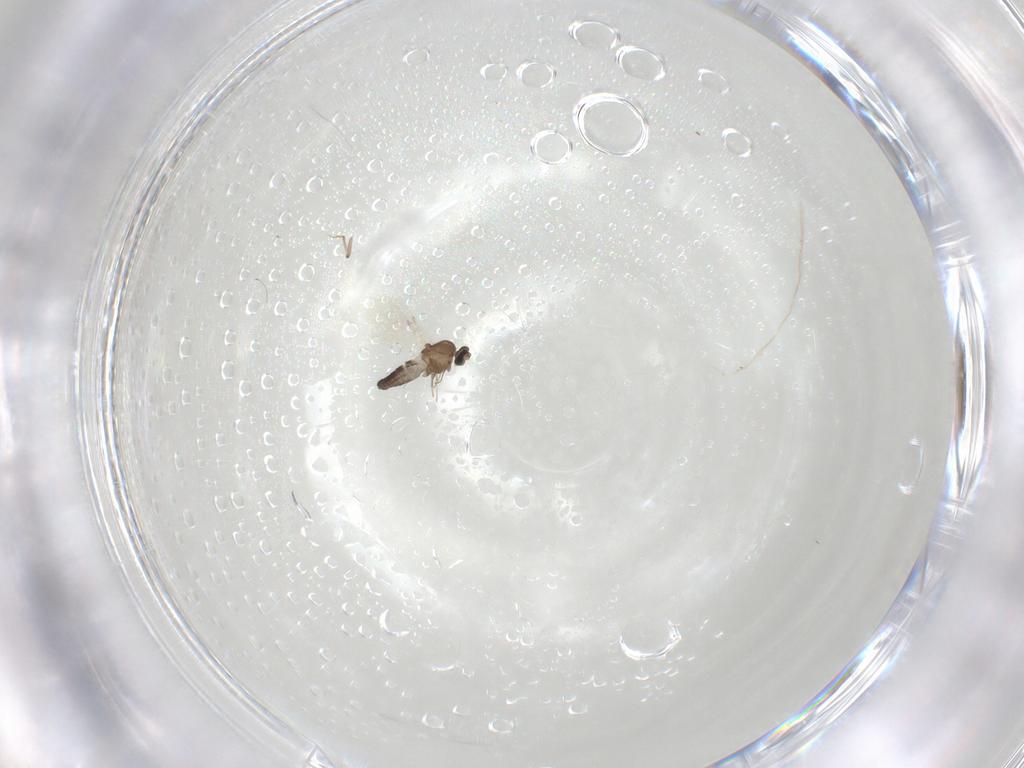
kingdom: Animalia
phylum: Arthropoda
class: Insecta
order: Diptera
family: Ceratopogonidae
